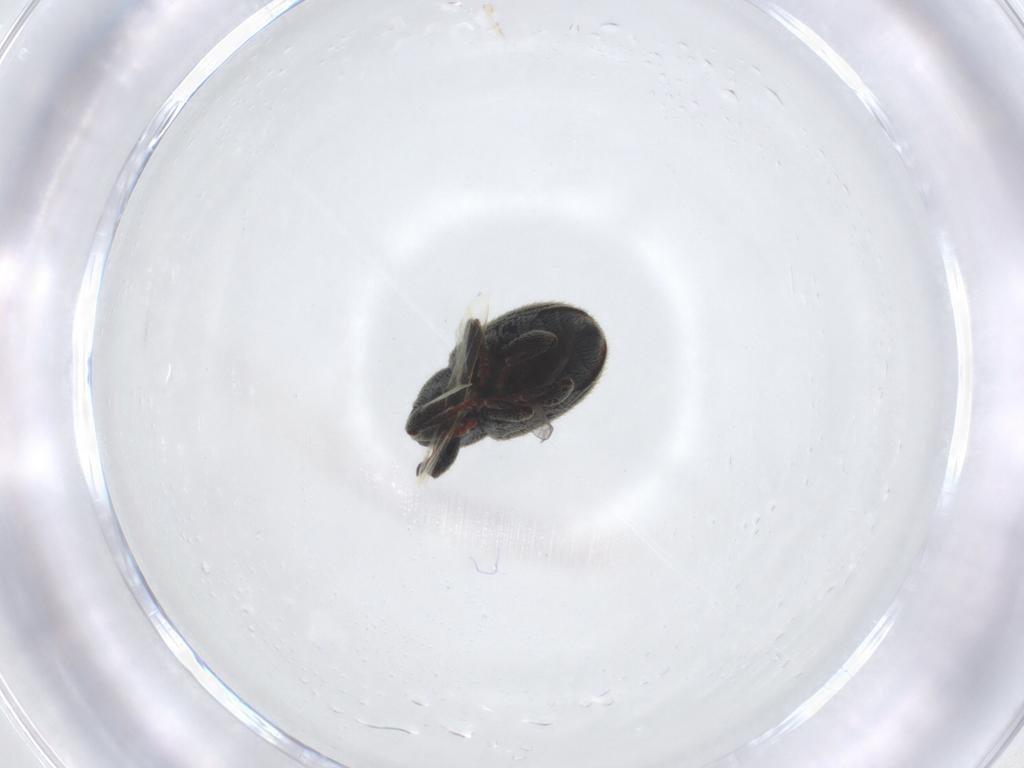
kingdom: Animalia
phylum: Arthropoda
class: Insecta
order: Coleoptera
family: Curculionidae
